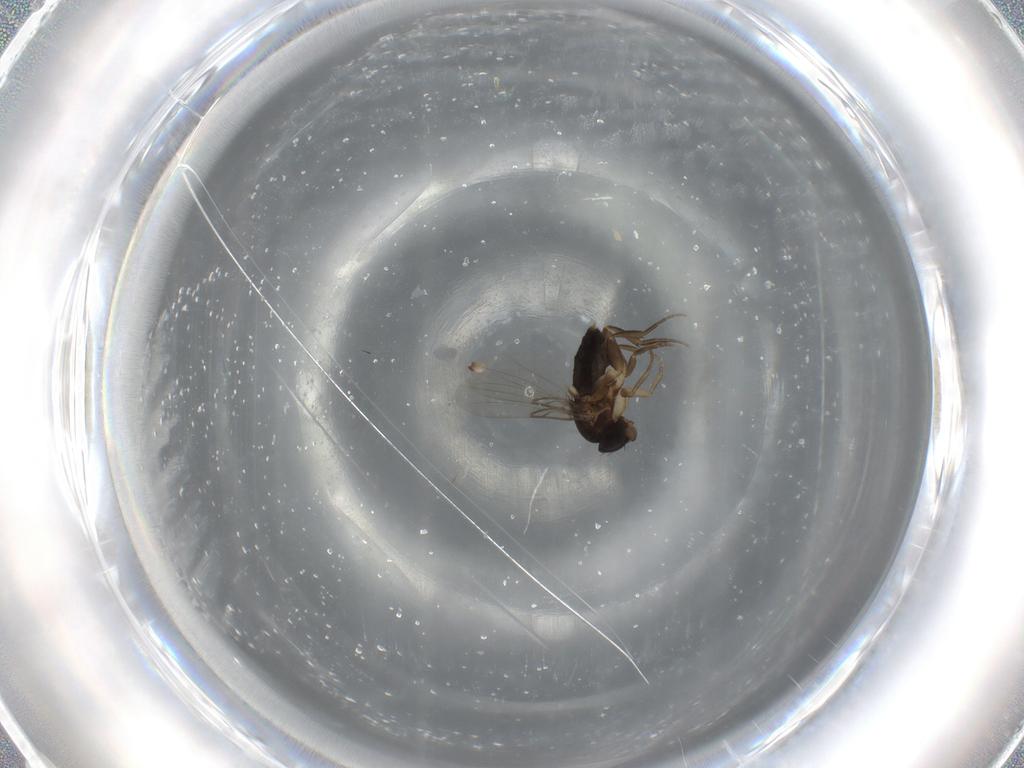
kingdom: Animalia
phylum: Arthropoda
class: Insecta
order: Diptera
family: Phoridae
